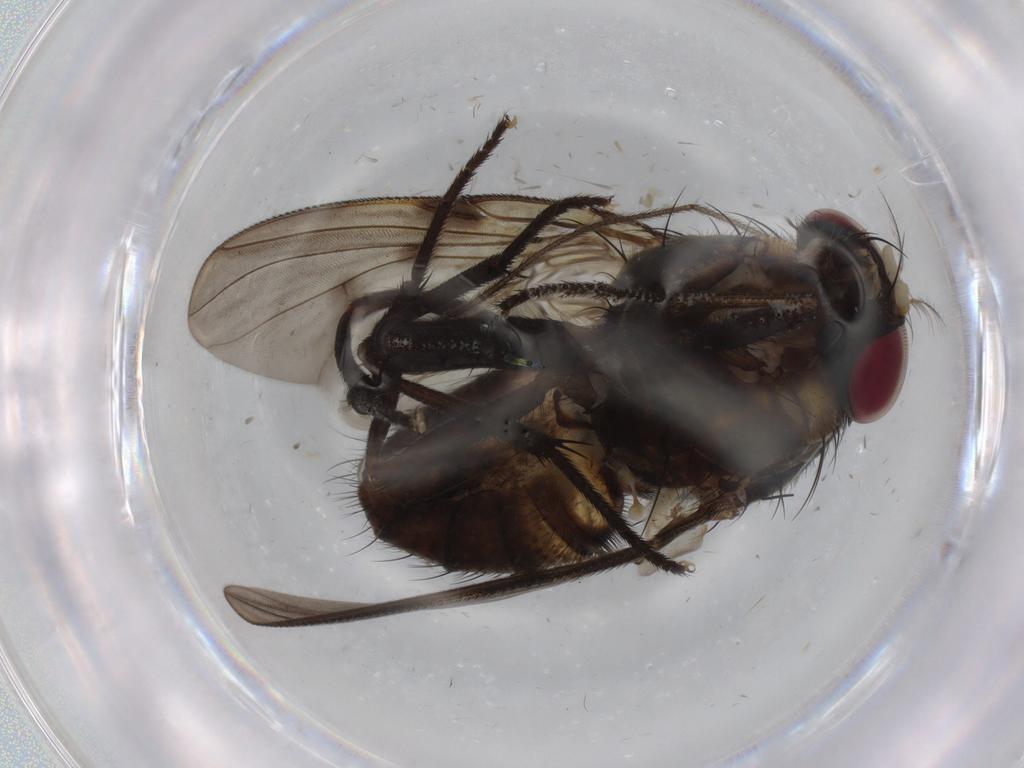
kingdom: Animalia
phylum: Arthropoda
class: Insecta
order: Diptera
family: Muscidae
